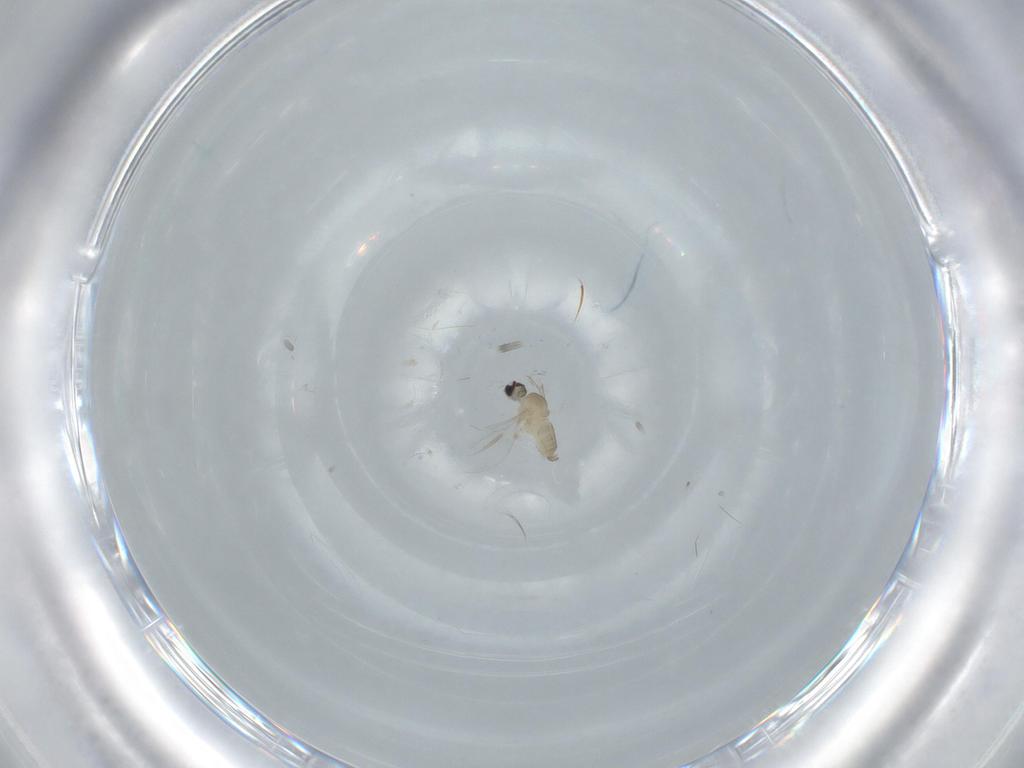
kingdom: Animalia
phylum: Arthropoda
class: Insecta
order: Diptera
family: Cecidomyiidae
